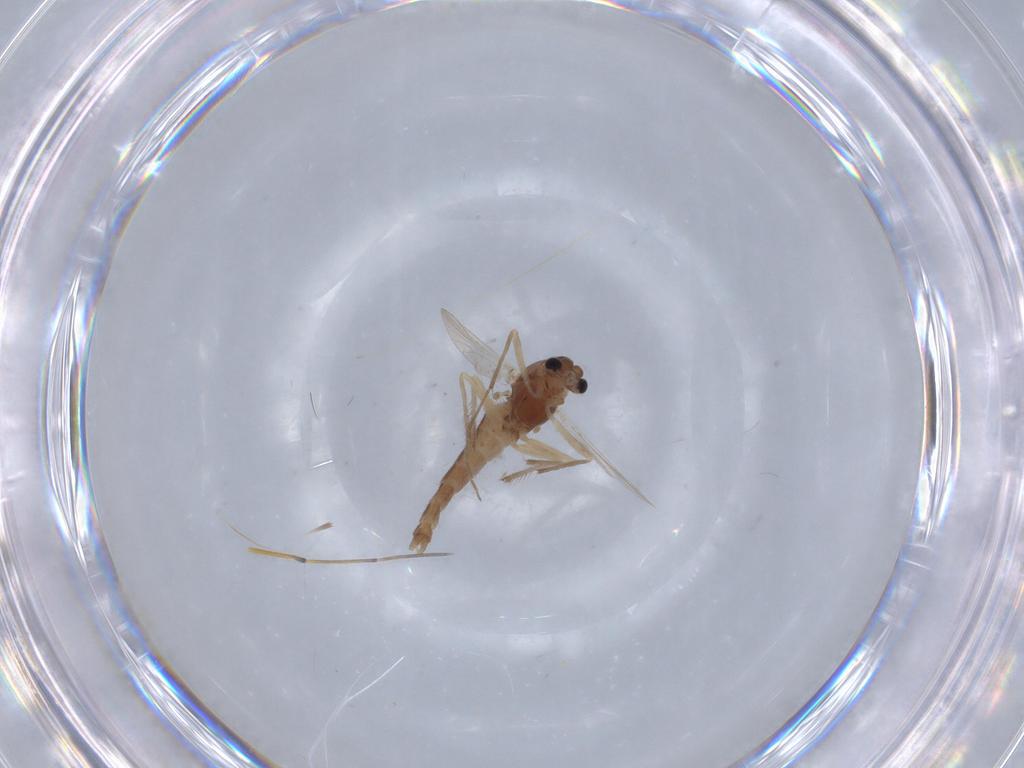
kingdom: Animalia
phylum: Arthropoda
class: Insecta
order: Diptera
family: Chironomidae
